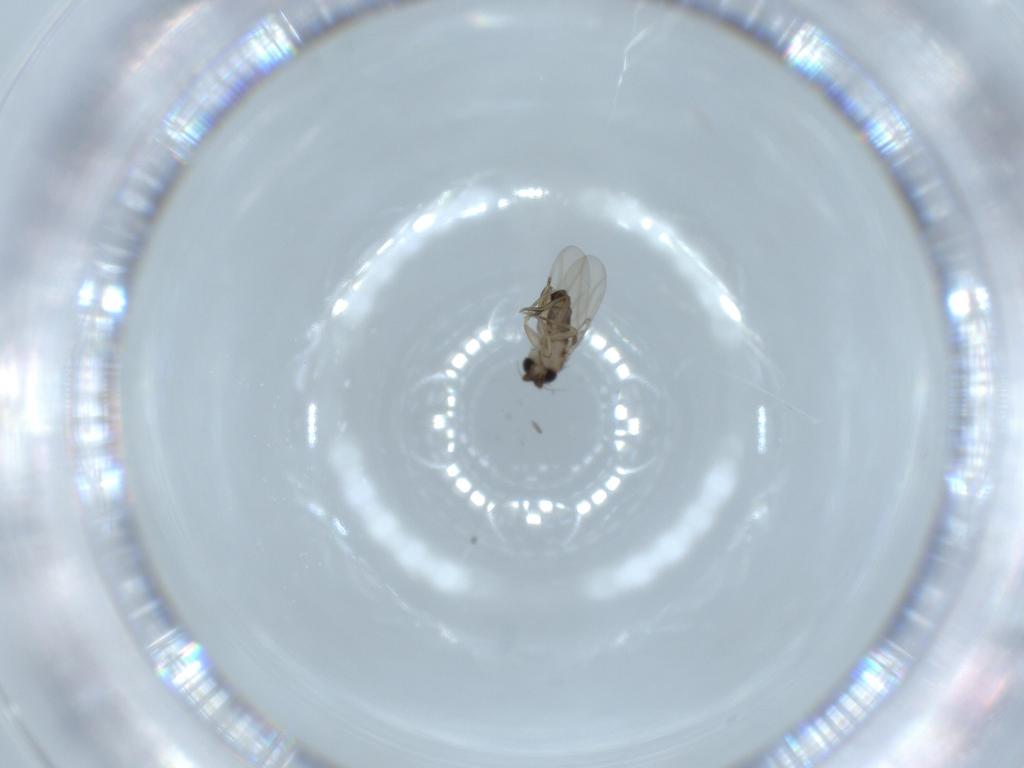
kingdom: Animalia
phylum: Arthropoda
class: Insecta
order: Diptera
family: Phoridae
